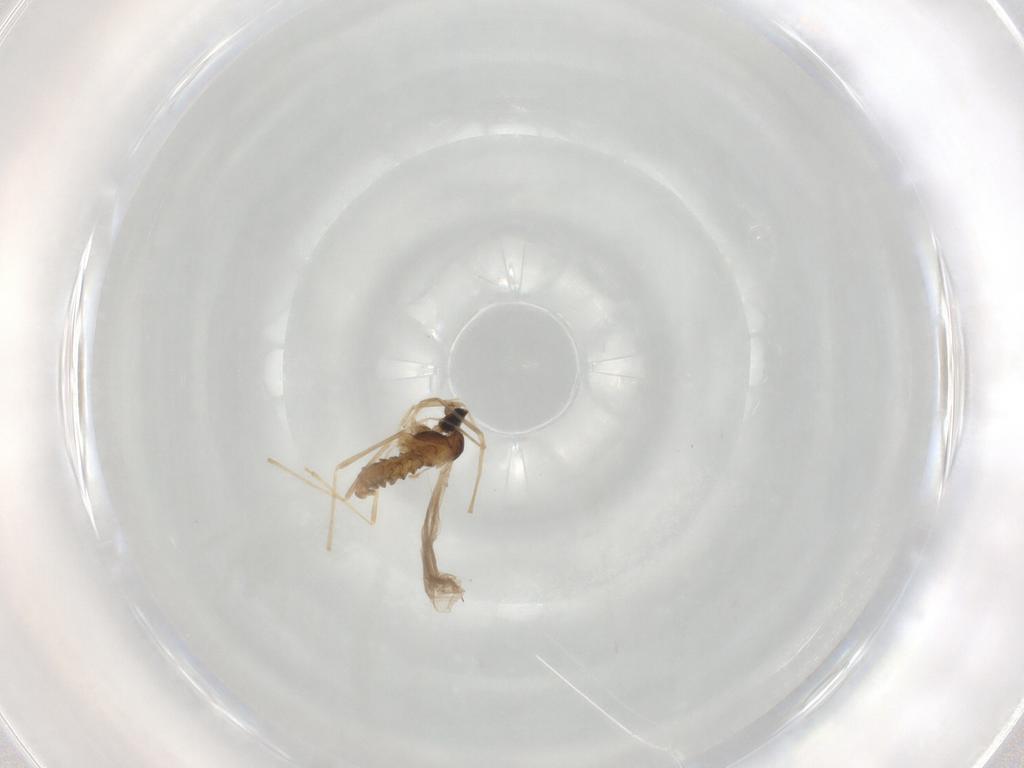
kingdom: Animalia
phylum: Arthropoda
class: Insecta
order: Diptera
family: Cecidomyiidae
